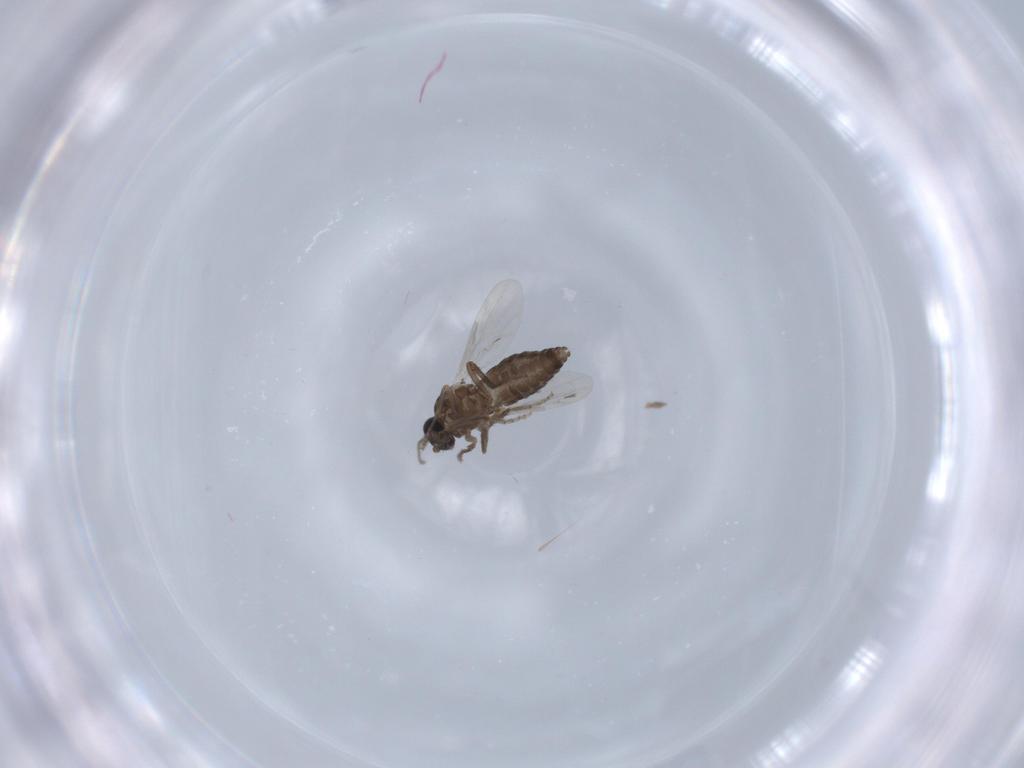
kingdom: Animalia
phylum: Arthropoda
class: Insecta
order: Diptera
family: Ceratopogonidae
